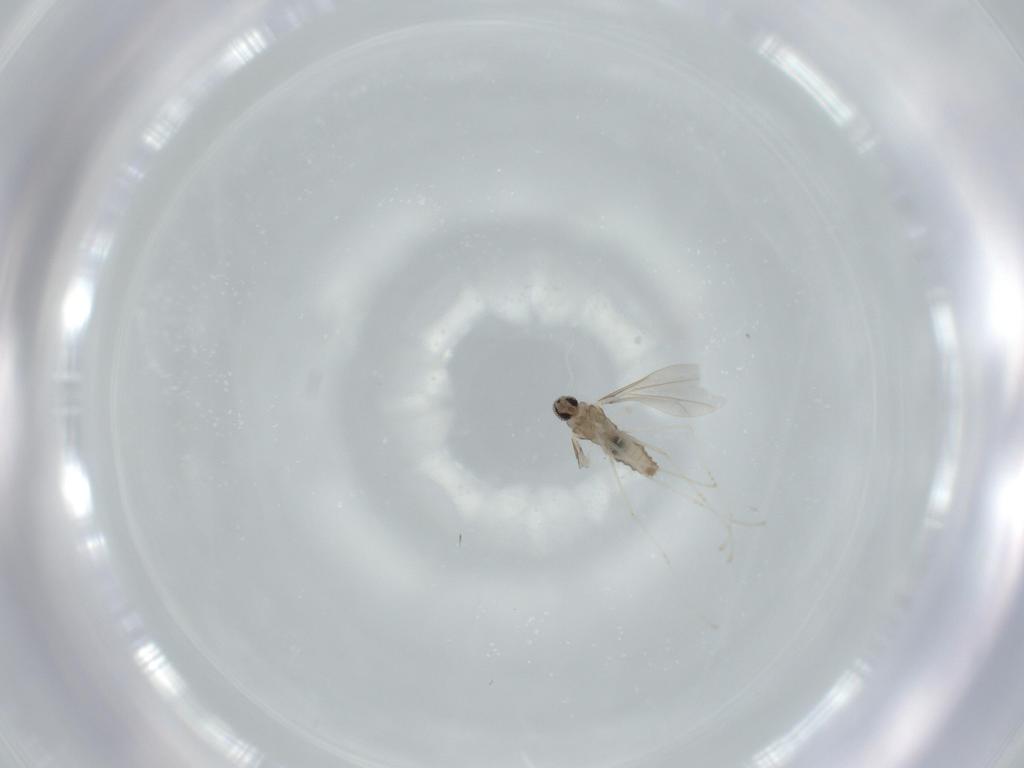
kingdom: Animalia
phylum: Arthropoda
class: Insecta
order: Diptera
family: Cecidomyiidae
